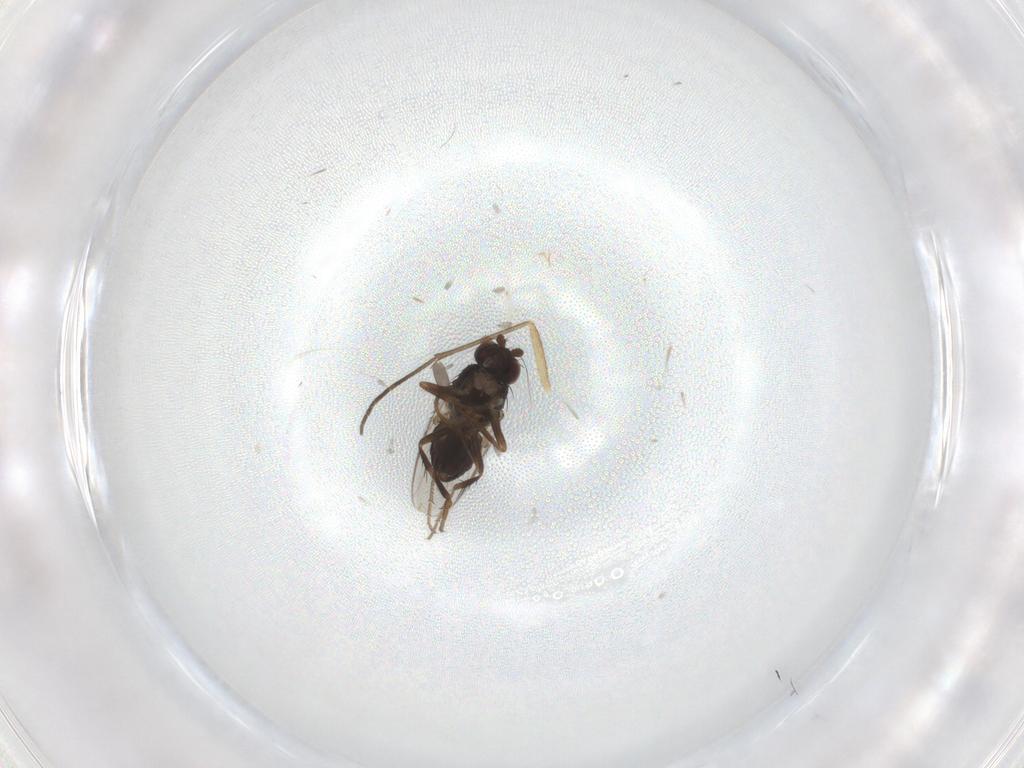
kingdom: Animalia
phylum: Arthropoda
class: Insecta
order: Diptera
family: Sphaeroceridae
